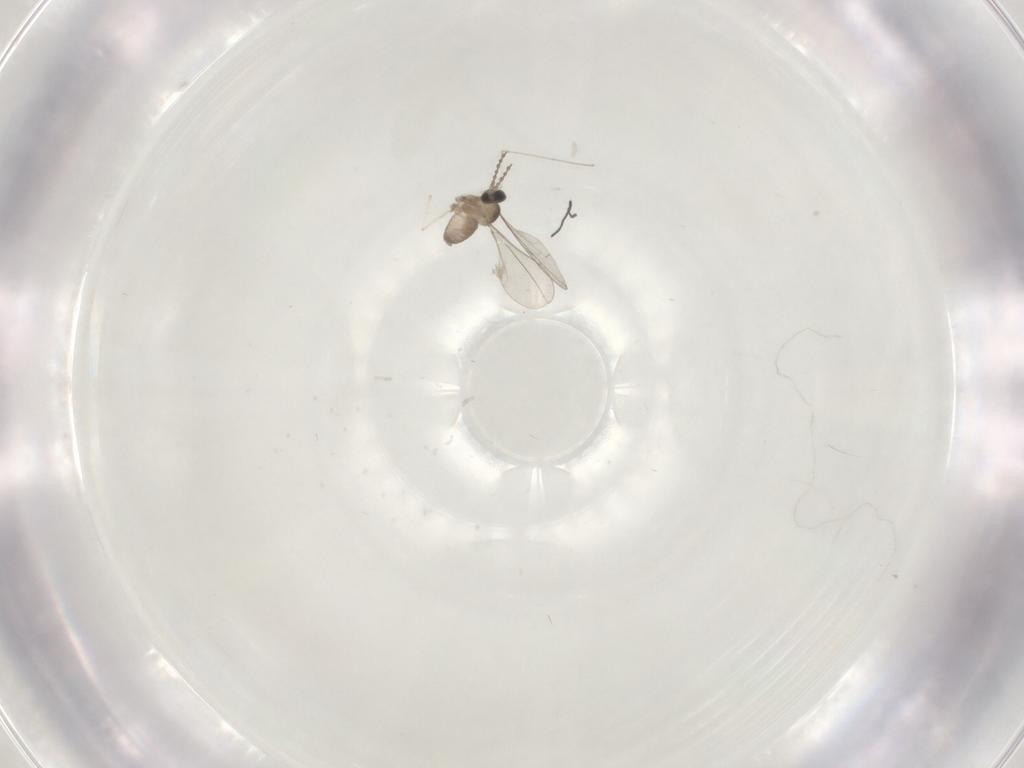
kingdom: Animalia
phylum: Arthropoda
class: Insecta
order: Diptera
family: Cecidomyiidae
